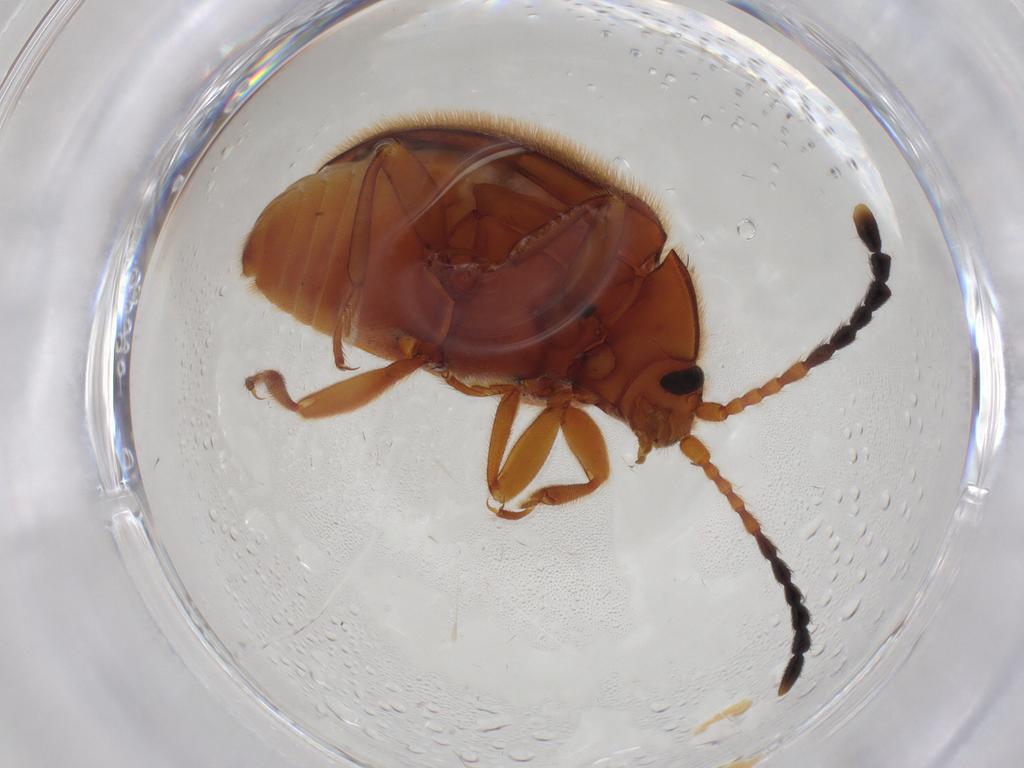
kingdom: Animalia
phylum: Arthropoda
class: Insecta
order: Coleoptera
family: Endomychidae
